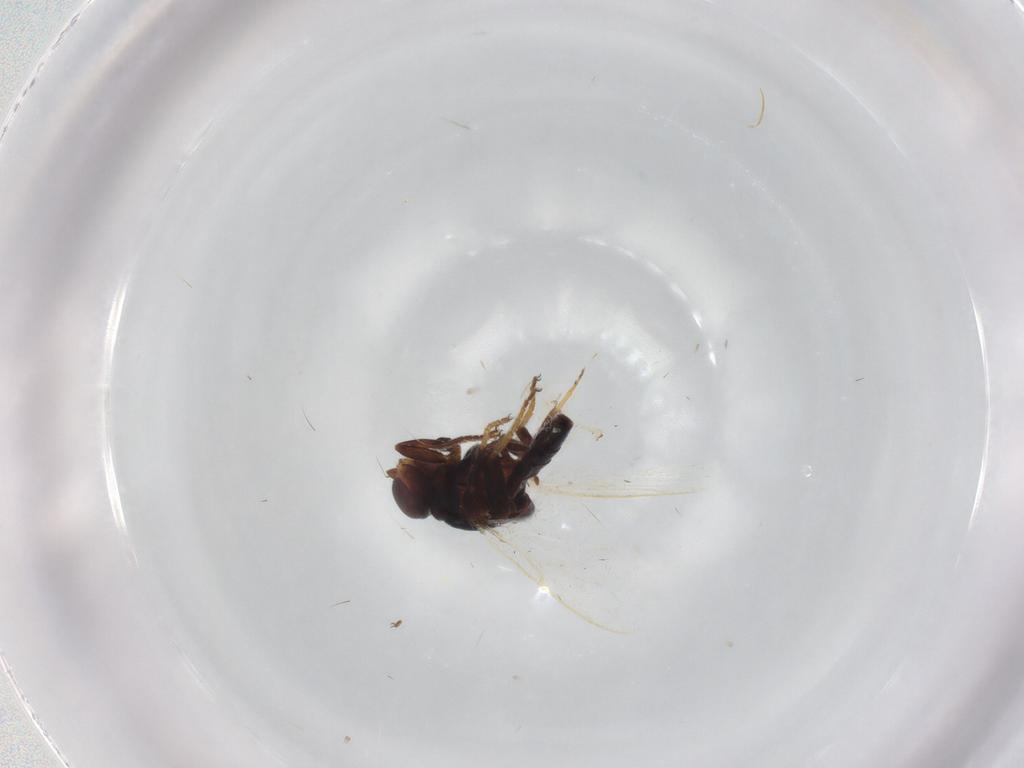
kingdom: Animalia
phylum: Arthropoda
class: Insecta
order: Diptera
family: Chloropidae
